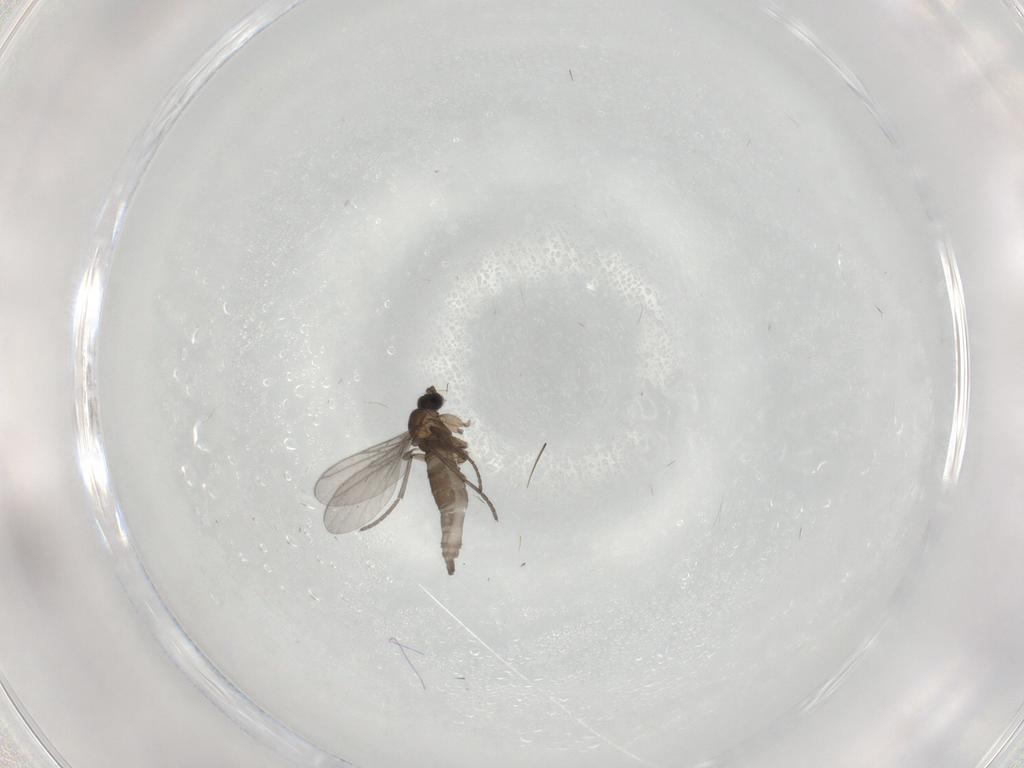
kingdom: Animalia
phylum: Arthropoda
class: Insecta
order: Diptera
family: Sciaridae
